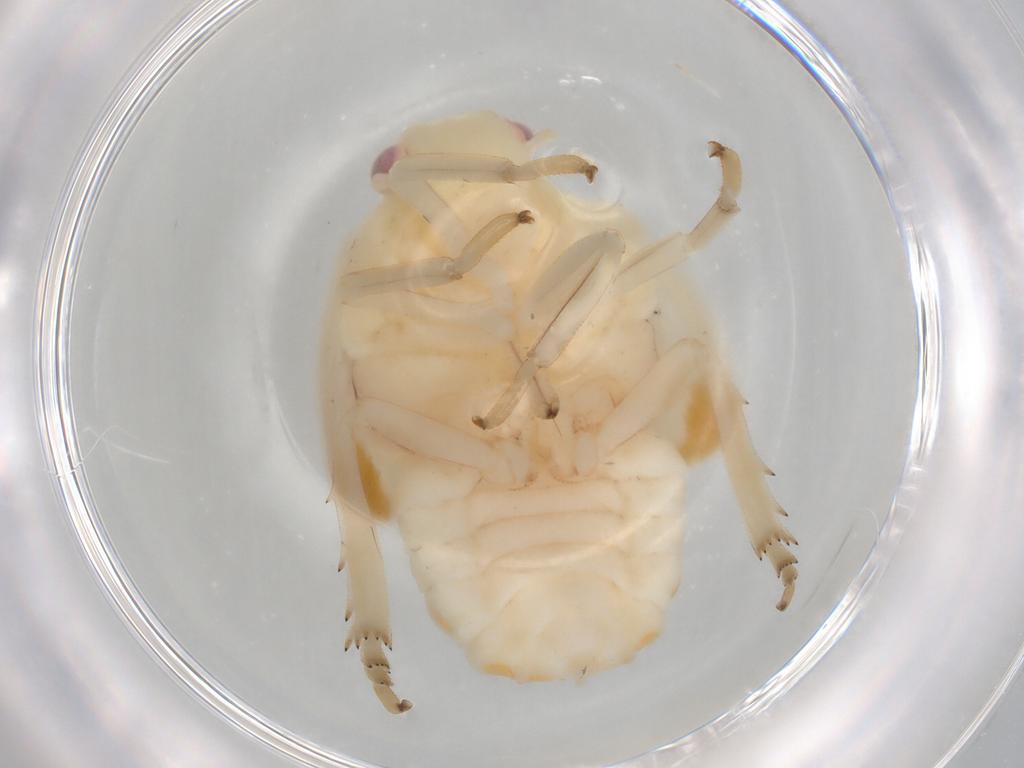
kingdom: Animalia
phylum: Arthropoda
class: Insecta
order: Hemiptera
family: Fulgoroidea_incertae_sedis
